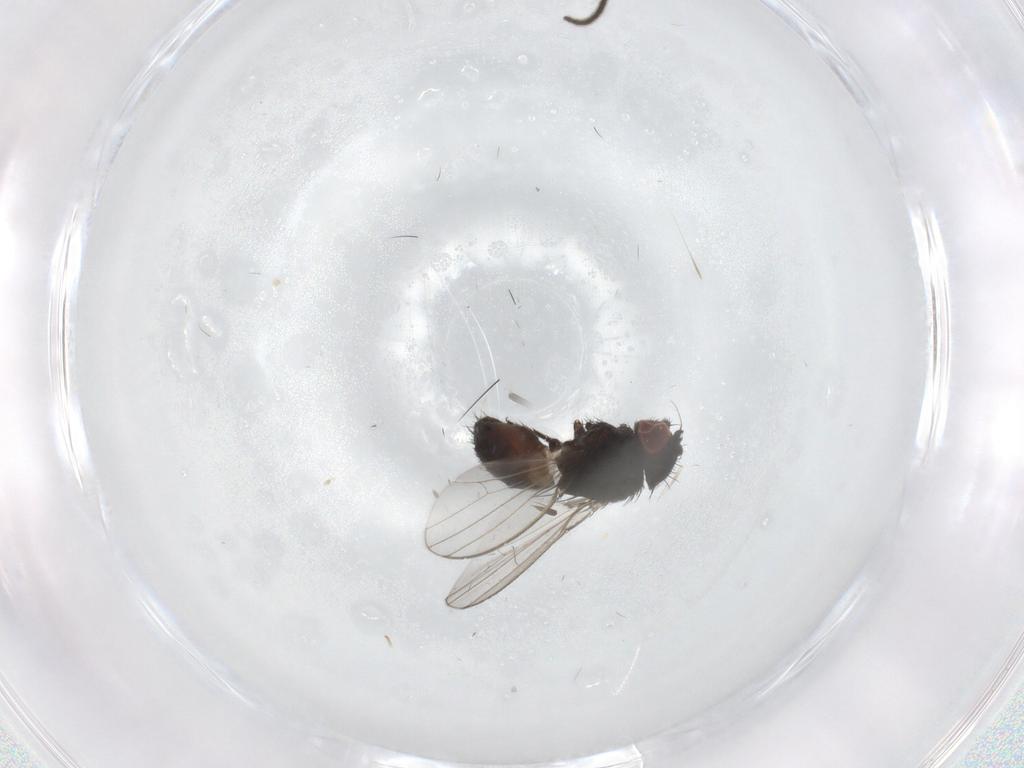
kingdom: Animalia
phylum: Arthropoda
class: Insecta
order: Diptera
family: Milichiidae
